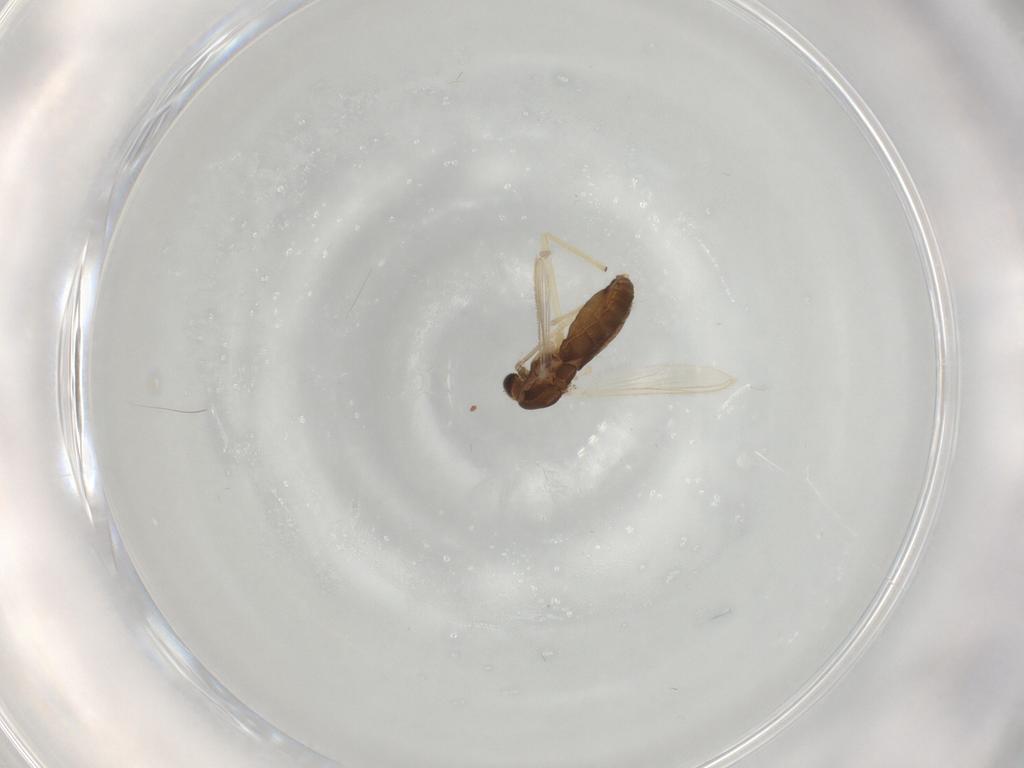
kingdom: Animalia
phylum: Arthropoda
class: Insecta
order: Diptera
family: Chironomidae
